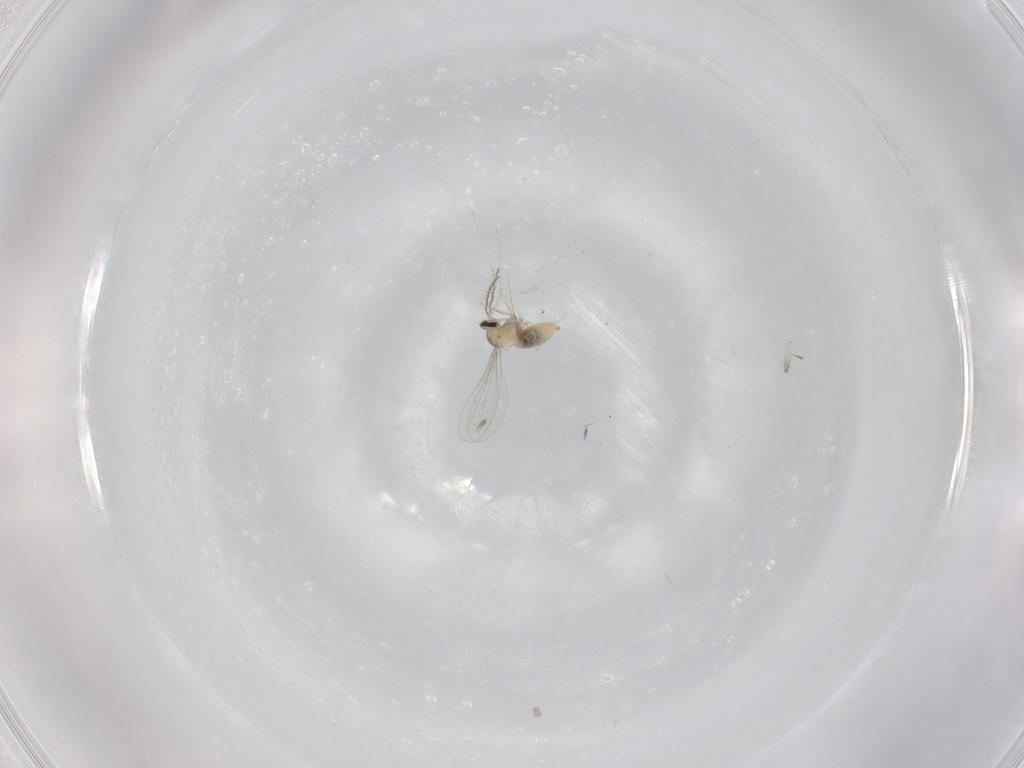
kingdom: Animalia
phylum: Arthropoda
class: Insecta
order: Diptera
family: Cecidomyiidae
